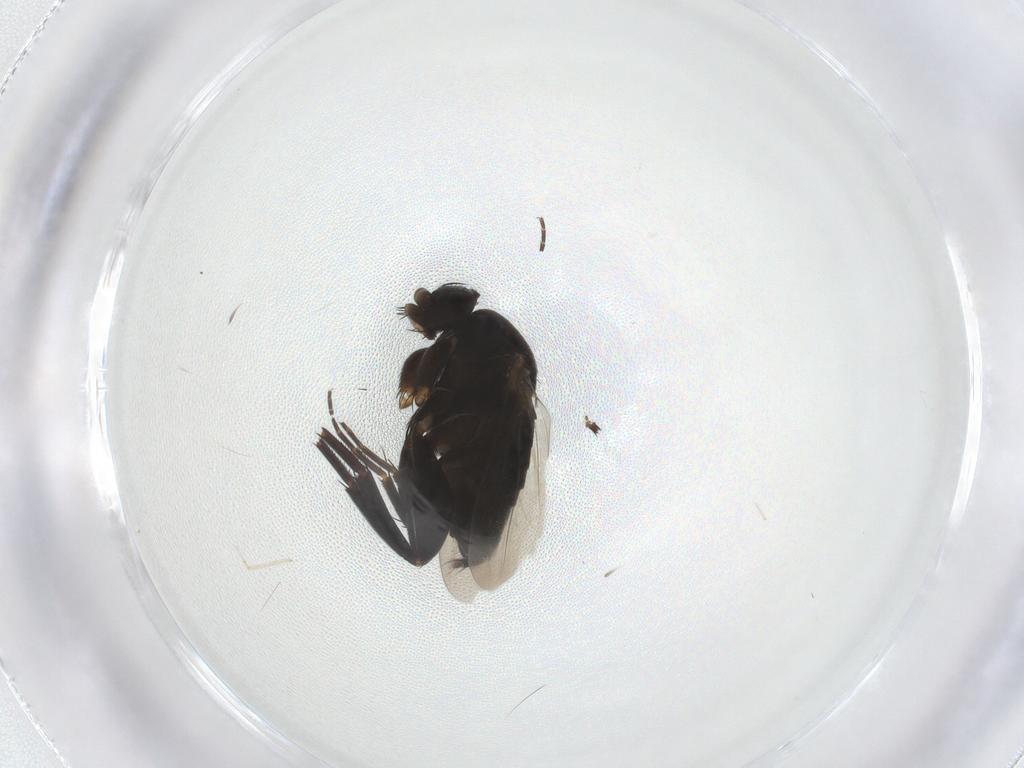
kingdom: Animalia
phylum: Arthropoda
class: Insecta
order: Diptera
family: Phoridae
